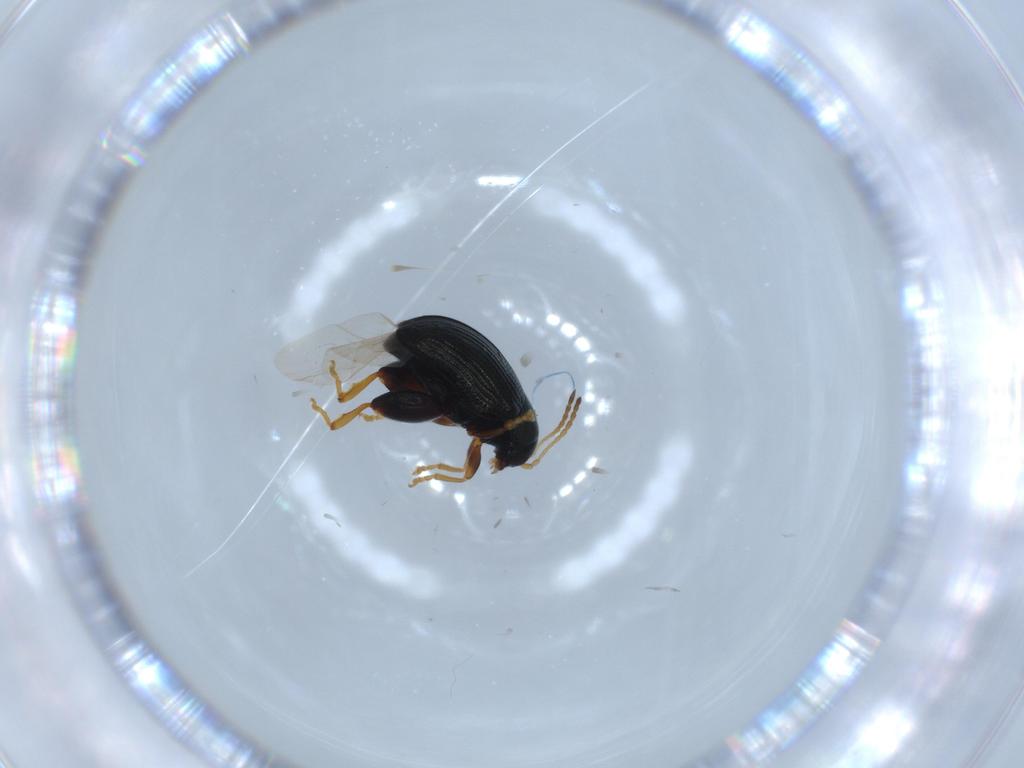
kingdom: Animalia
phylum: Arthropoda
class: Insecta
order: Coleoptera
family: Chrysomelidae
